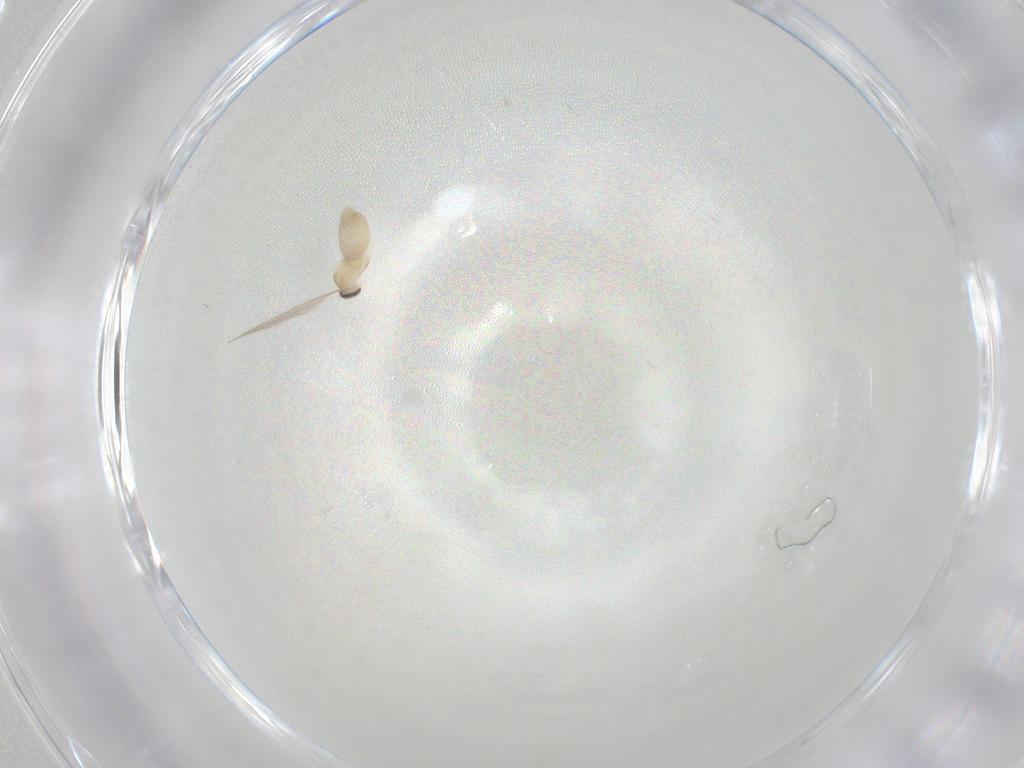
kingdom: Animalia
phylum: Arthropoda
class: Insecta
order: Diptera
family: Cecidomyiidae
